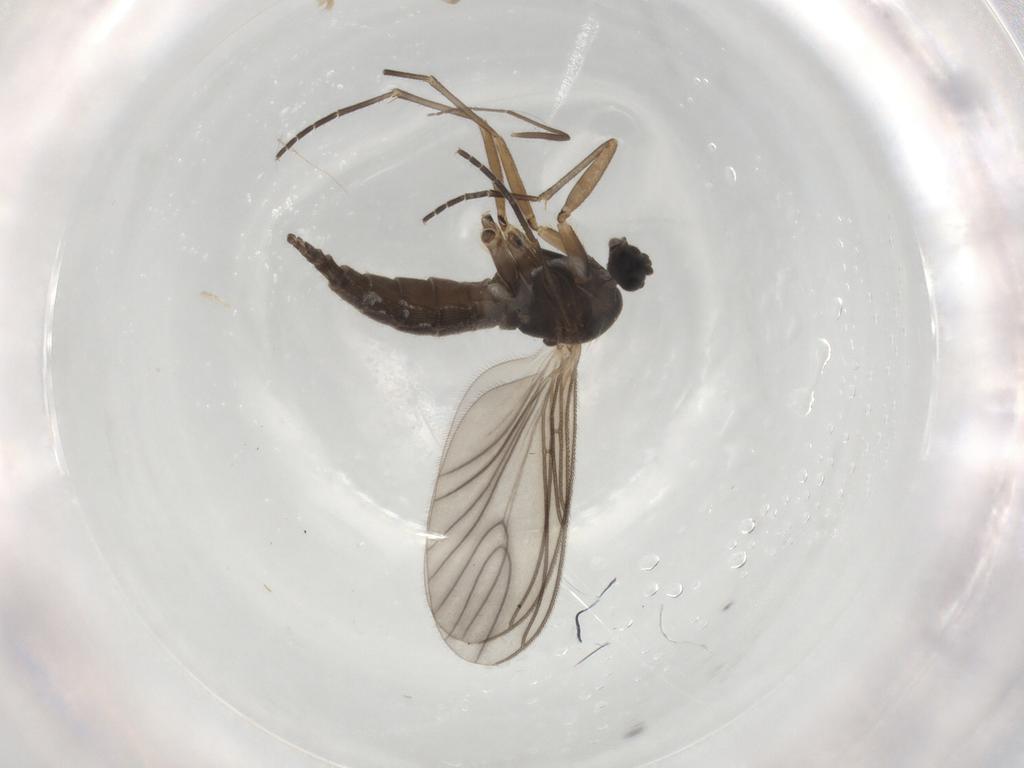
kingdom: Animalia
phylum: Arthropoda
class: Insecta
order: Diptera
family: Sciaridae
